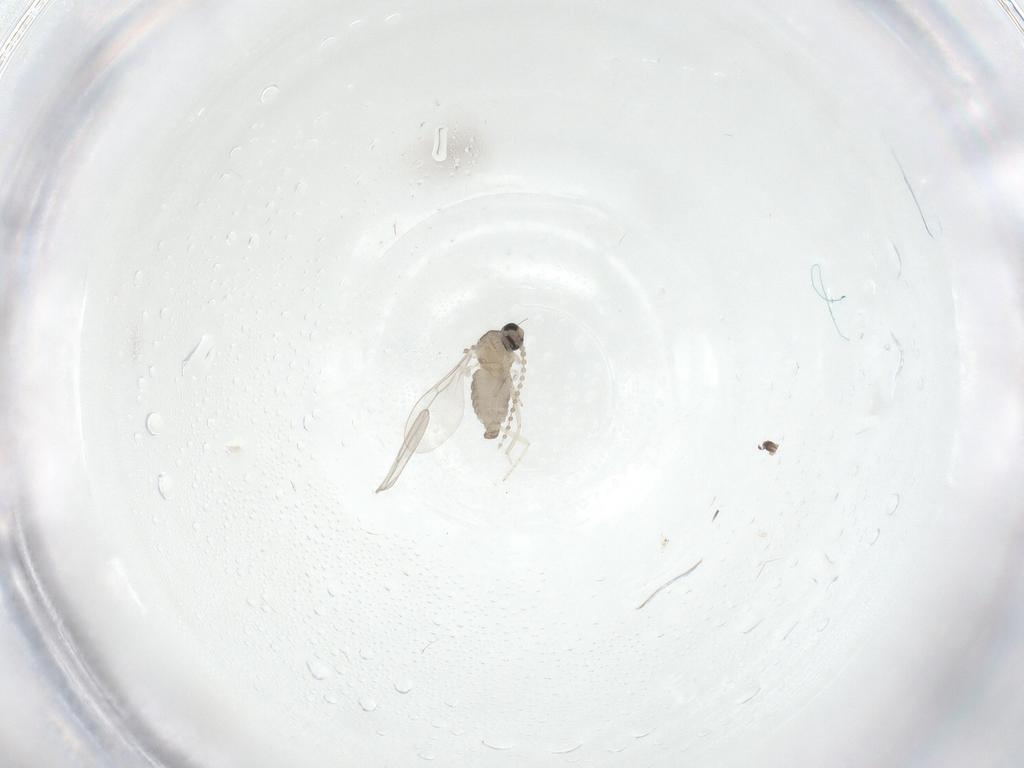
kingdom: Animalia
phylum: Arthropoda
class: Insecta
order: Diptera
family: Cecidomyiidae
